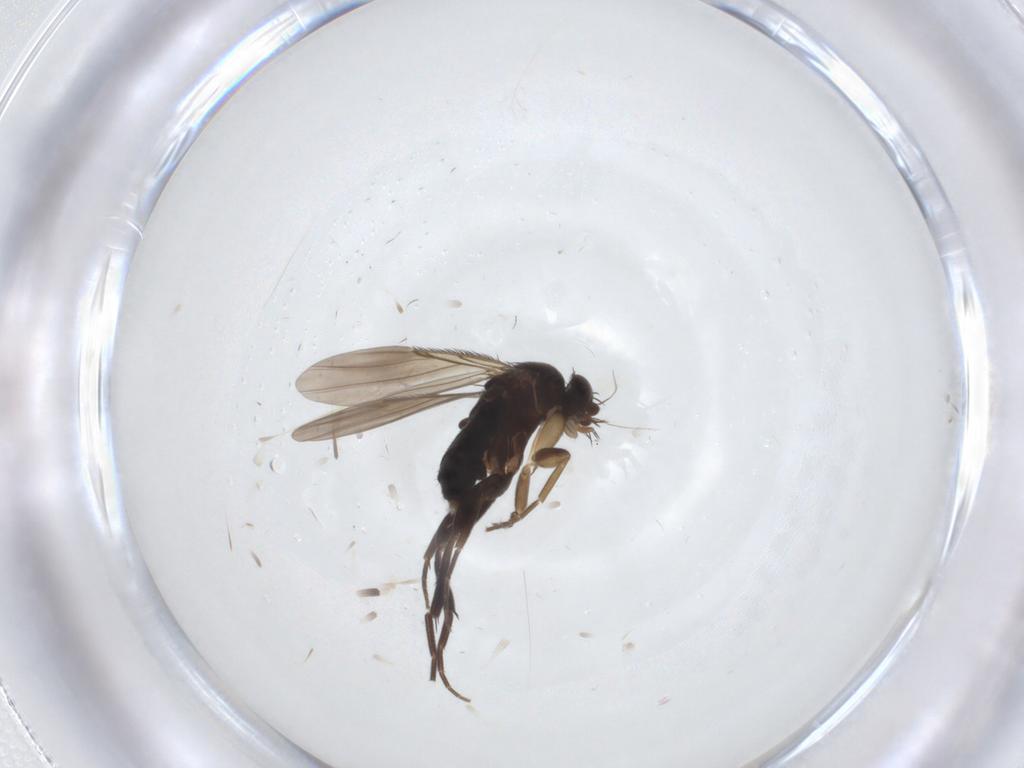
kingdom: Animalia
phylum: Arthropoda
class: Insecta
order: Diptera
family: Phoridae
